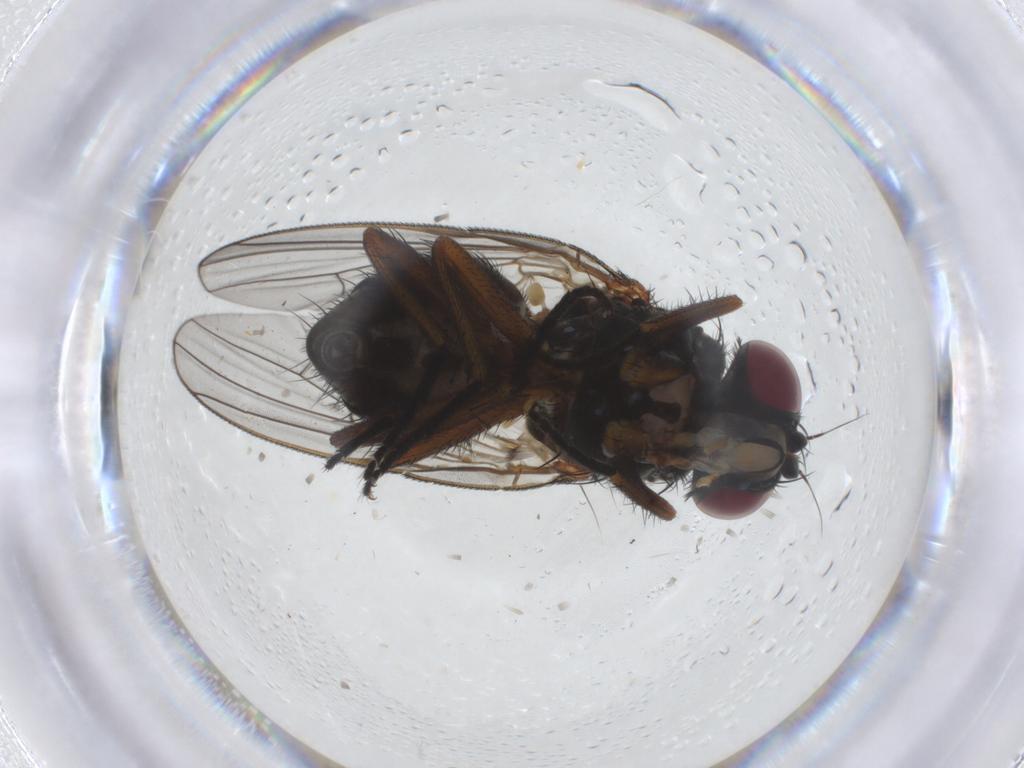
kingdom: Animalia
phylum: Arthropoda
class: Insecta
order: Diptera
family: Fannia
